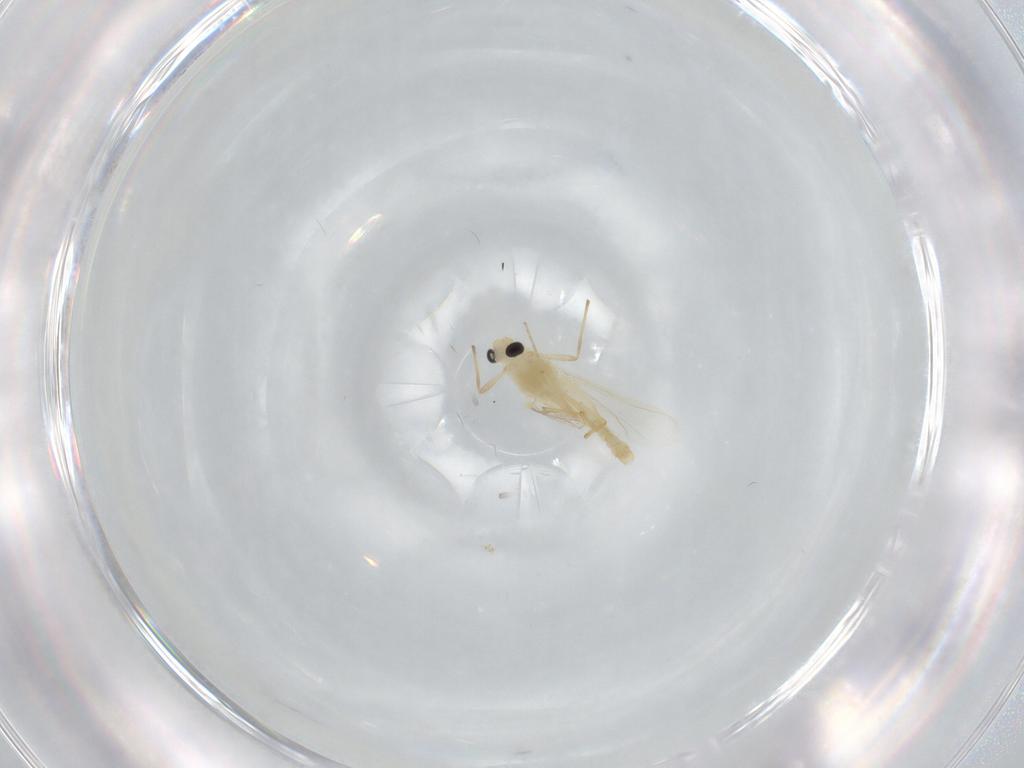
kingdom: Animalia
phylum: Arthropoda
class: Insecta
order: Diptera
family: Chironomidae
